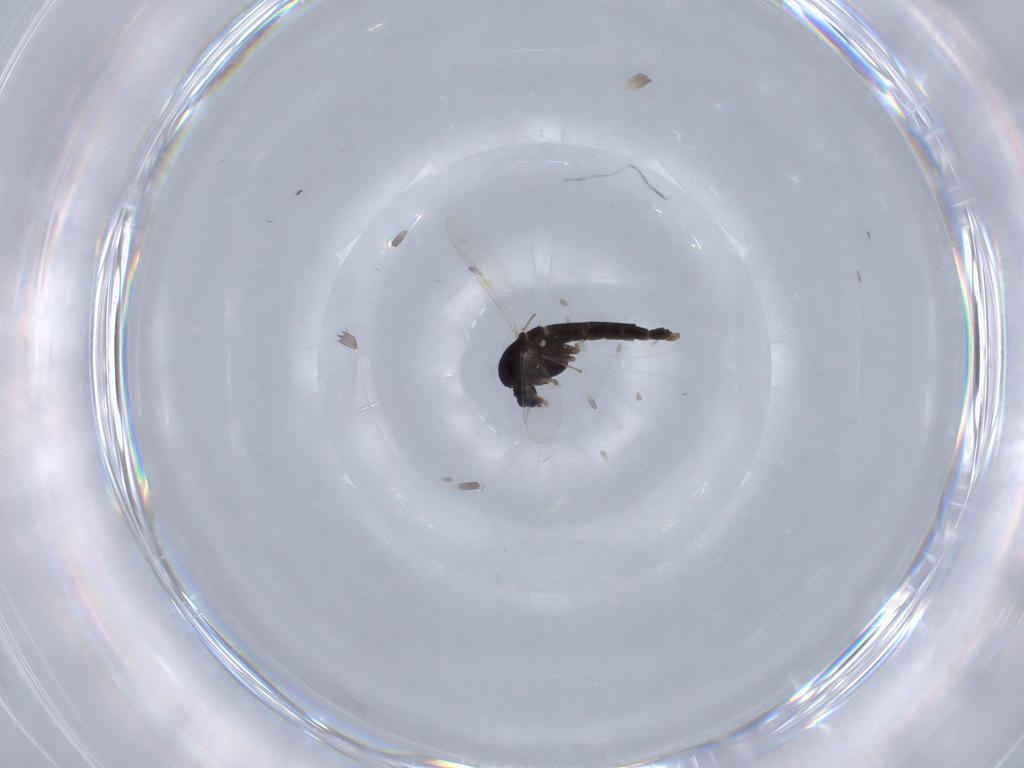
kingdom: Animalia
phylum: Arthropoda
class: Insecta
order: Diptera
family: Chironomidae
